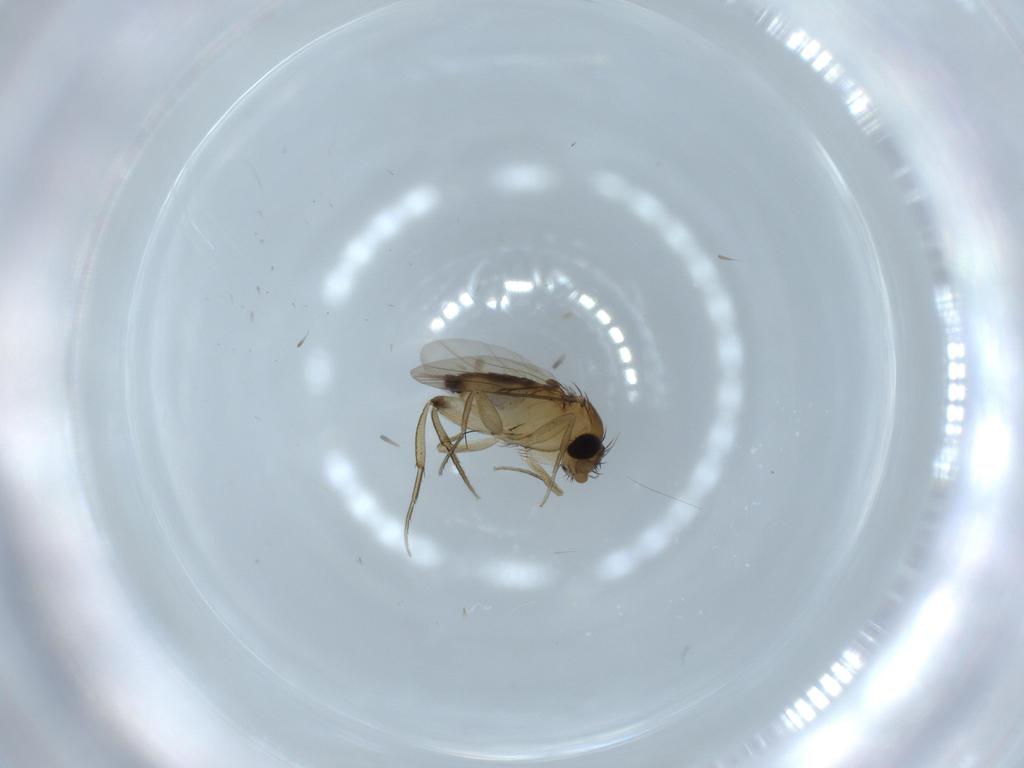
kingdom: Animalia
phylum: Arthropoda
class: Insecta
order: Diptera
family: Phoridae
